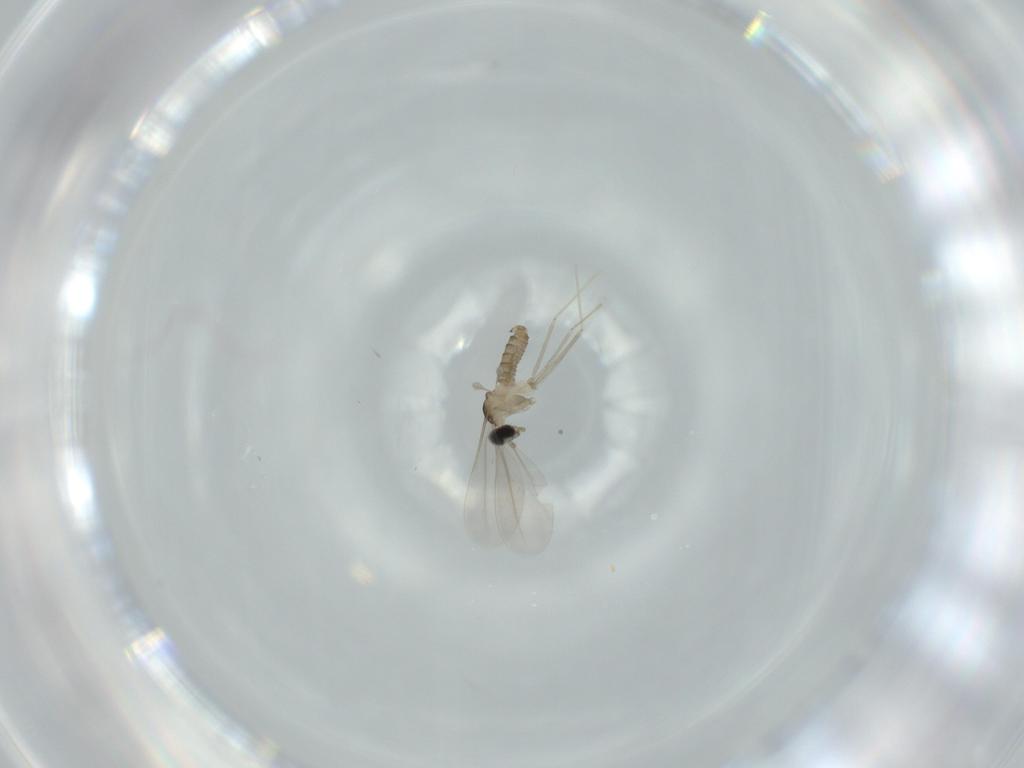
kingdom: Animalia
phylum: Arthropoda
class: Insecta
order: Diptera
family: Cecidomyiidae
